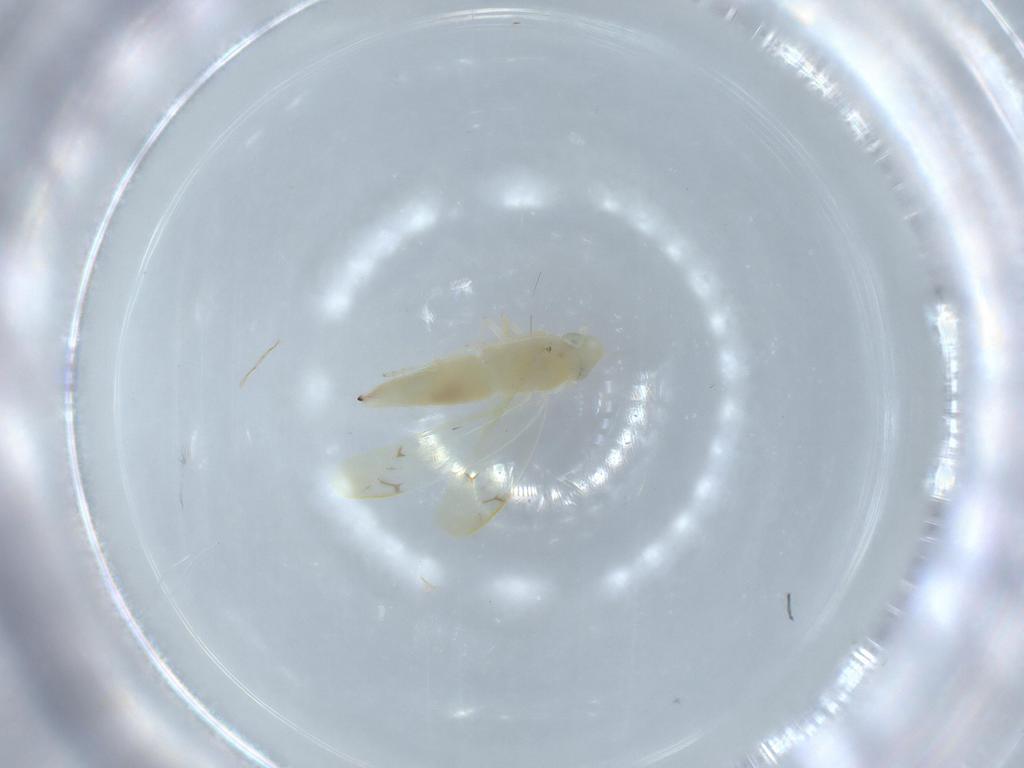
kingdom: Animalia
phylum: Arthropoda
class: Insecta
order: Hemiptera
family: Cicadellidae
